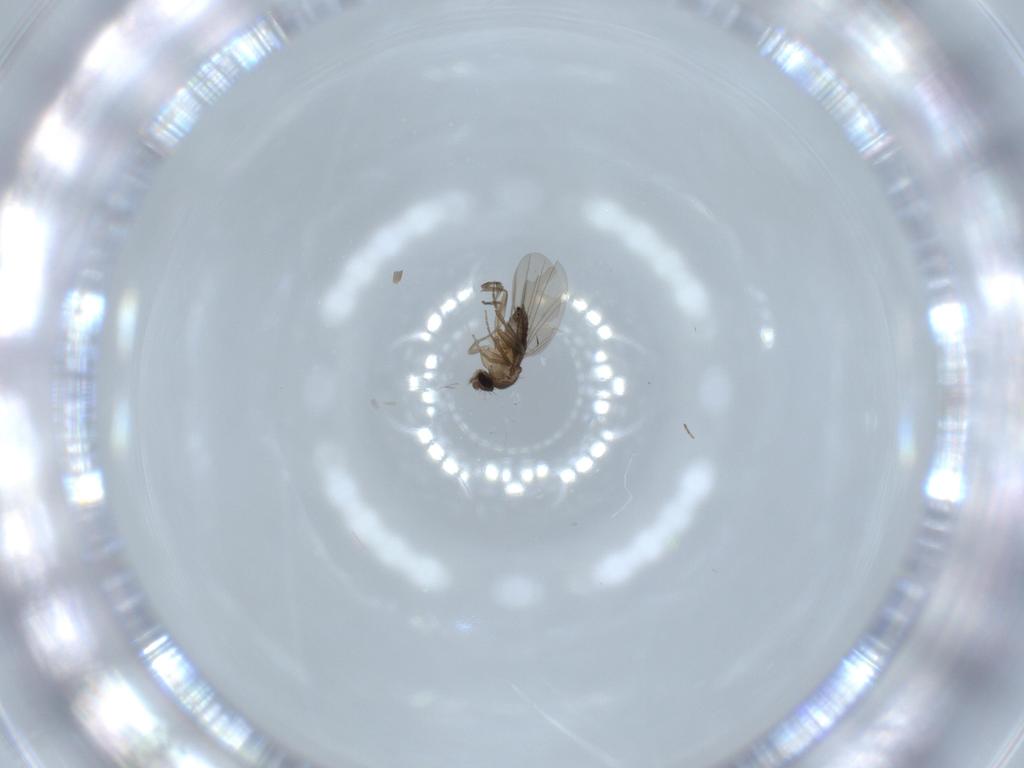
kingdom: Animalia
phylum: Arthropoda
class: Insecta
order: Diptera
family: Phoridae
